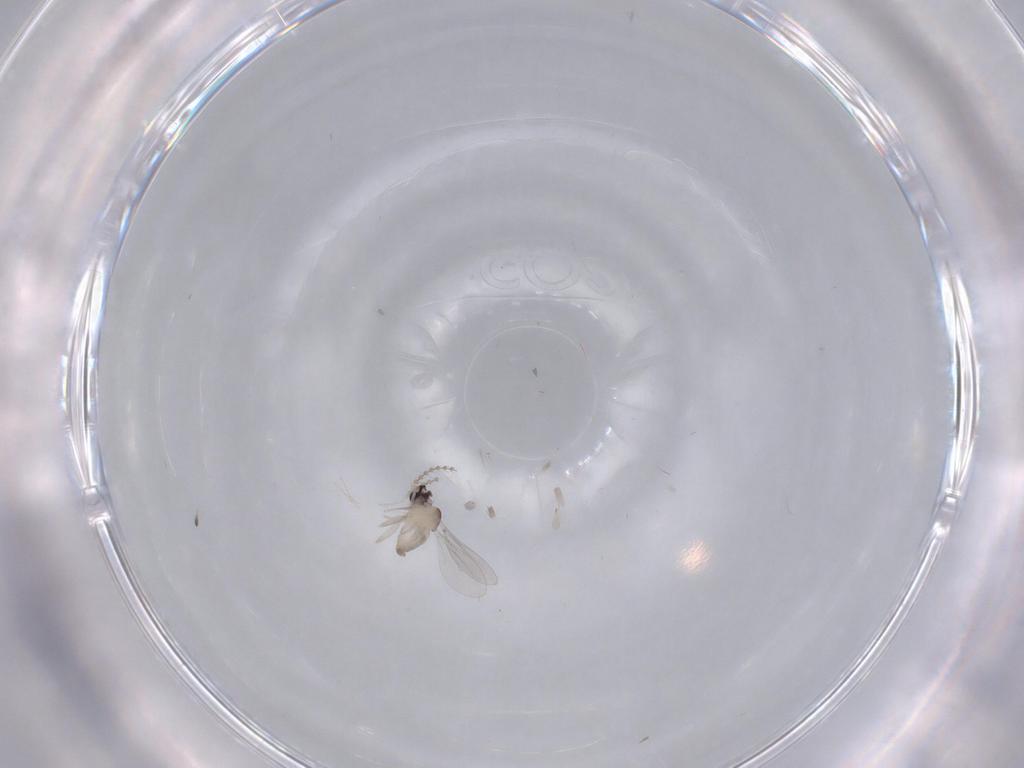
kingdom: Animalia
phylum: Arthropoda
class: Insecta
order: Diptera
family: Cecidomyiidae
